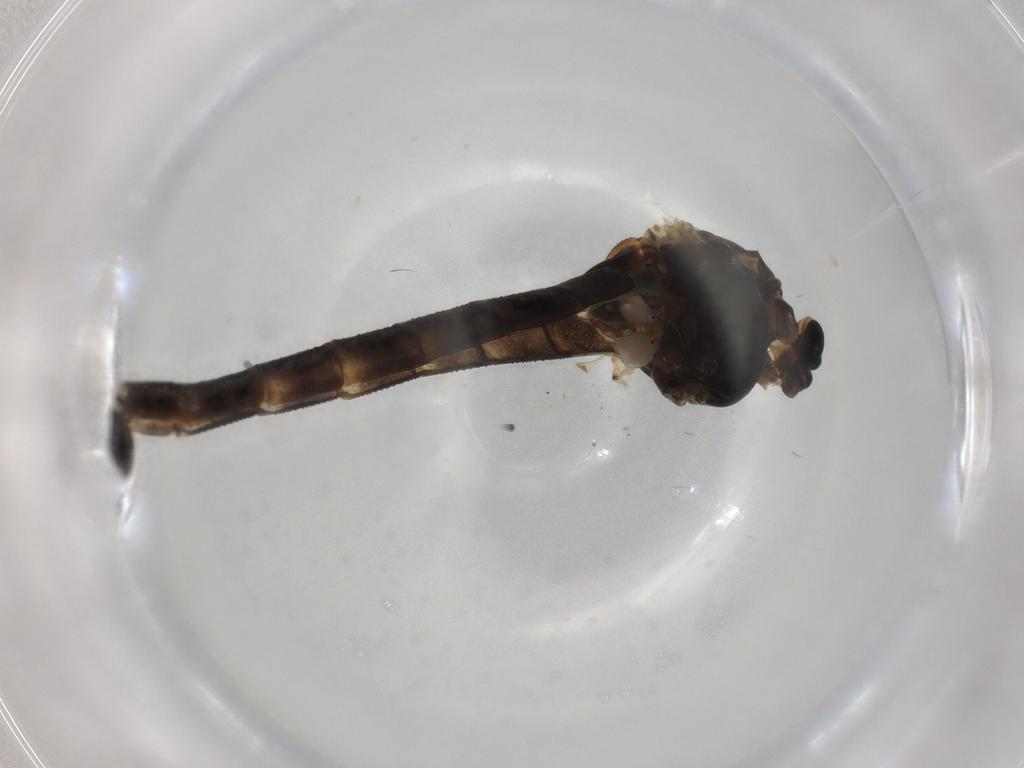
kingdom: Animalia
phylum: Arthropoda
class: Insecta
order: Diptera
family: Chironomidae
